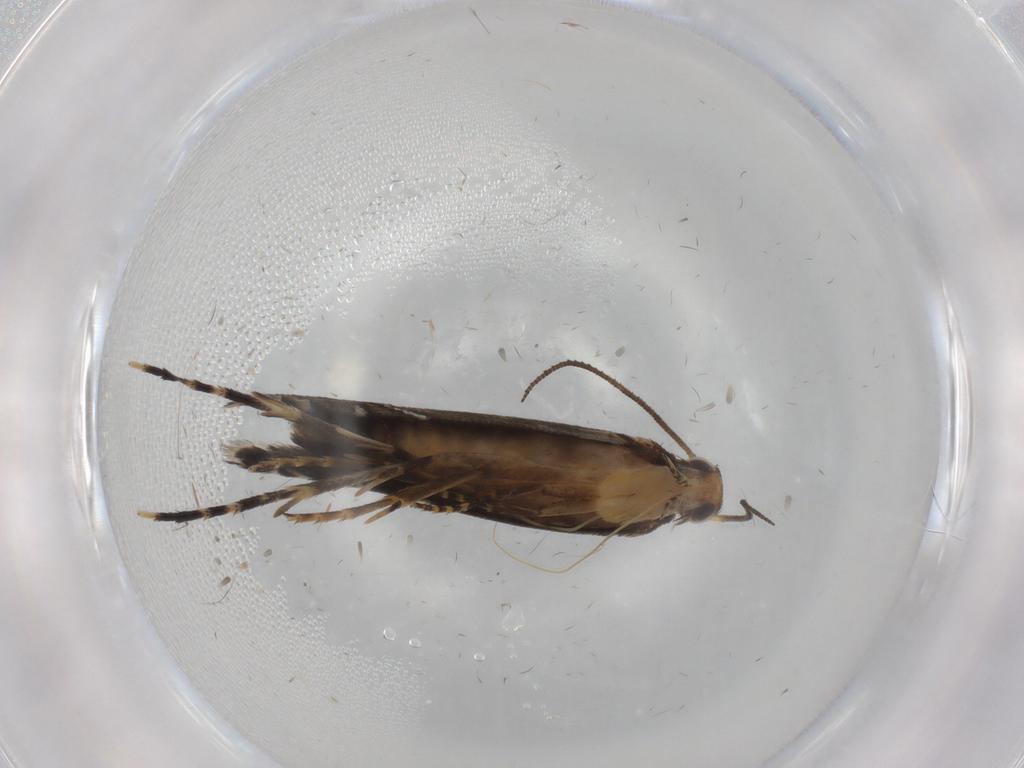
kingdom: Animalia
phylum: Arthropoda
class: Insecta
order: Lepidoptera
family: Glyphipterigidae
